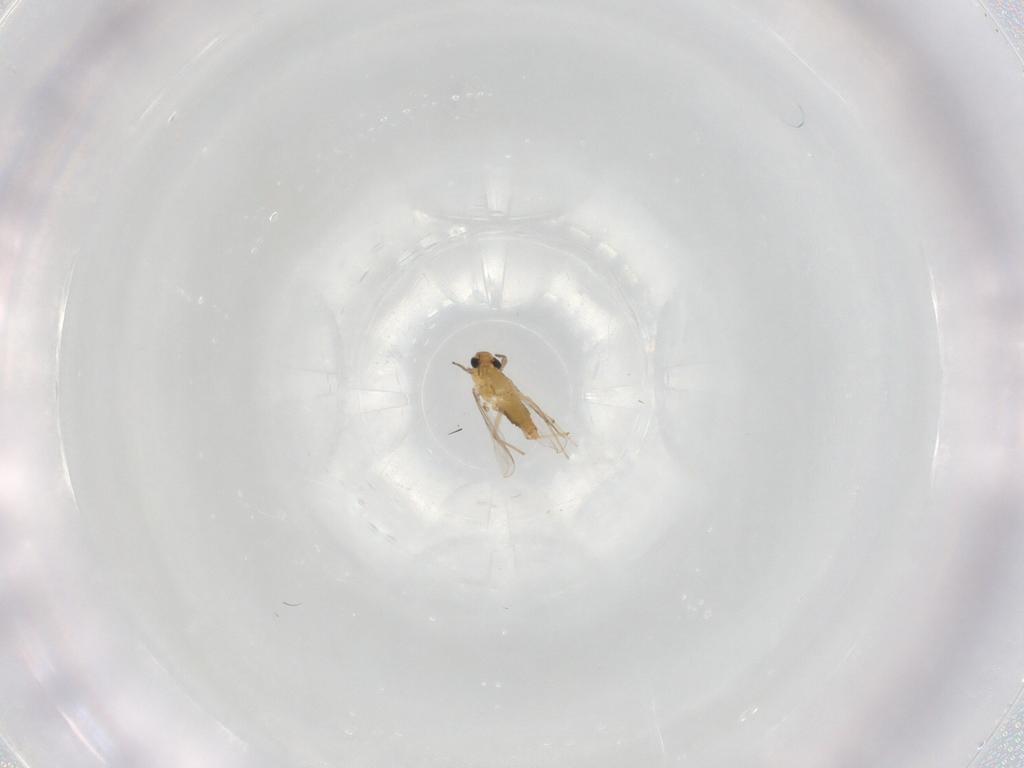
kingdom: Animalia
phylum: Arthropoda
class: Insecta
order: Diptera
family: Chironomidae
